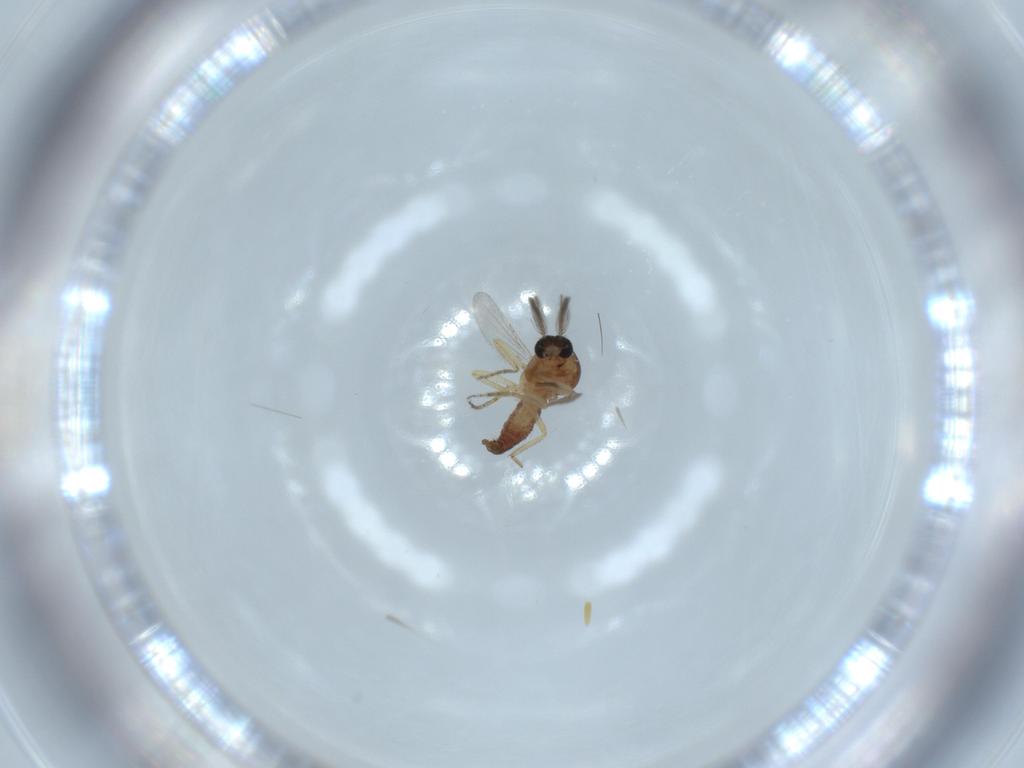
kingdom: Animalia
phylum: Arthropoda
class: Insecta
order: Diptera
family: Ceratopogonidae
